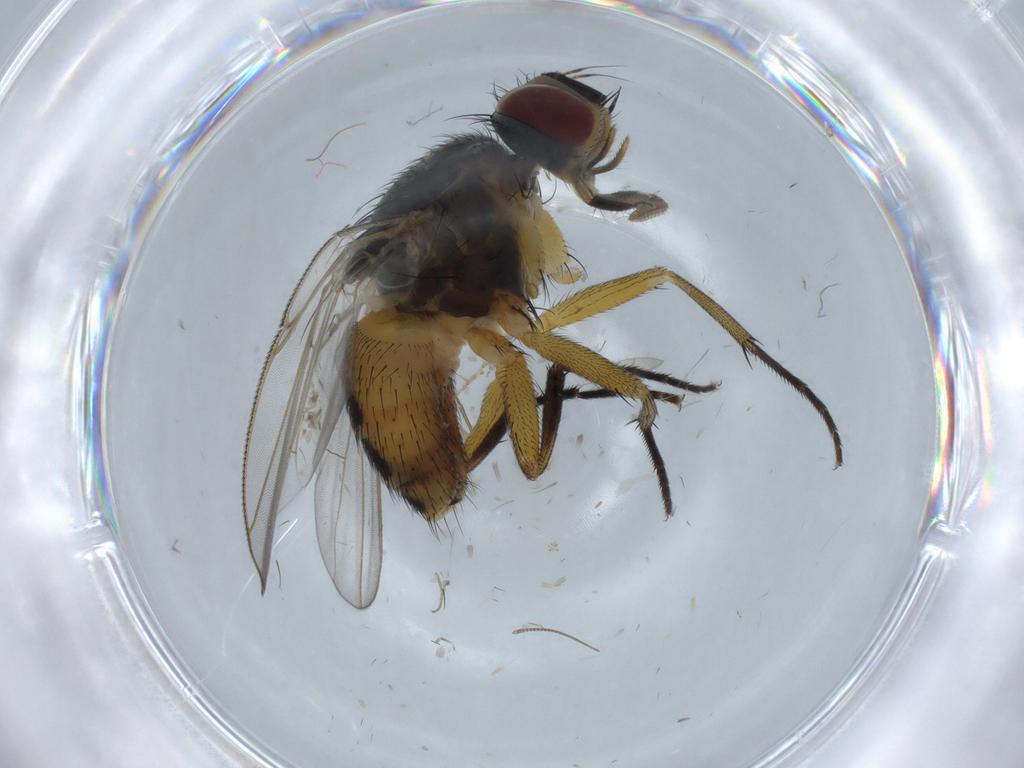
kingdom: Animalia
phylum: Arthropoda
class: Insecta
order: Diptera
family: Muscidae
